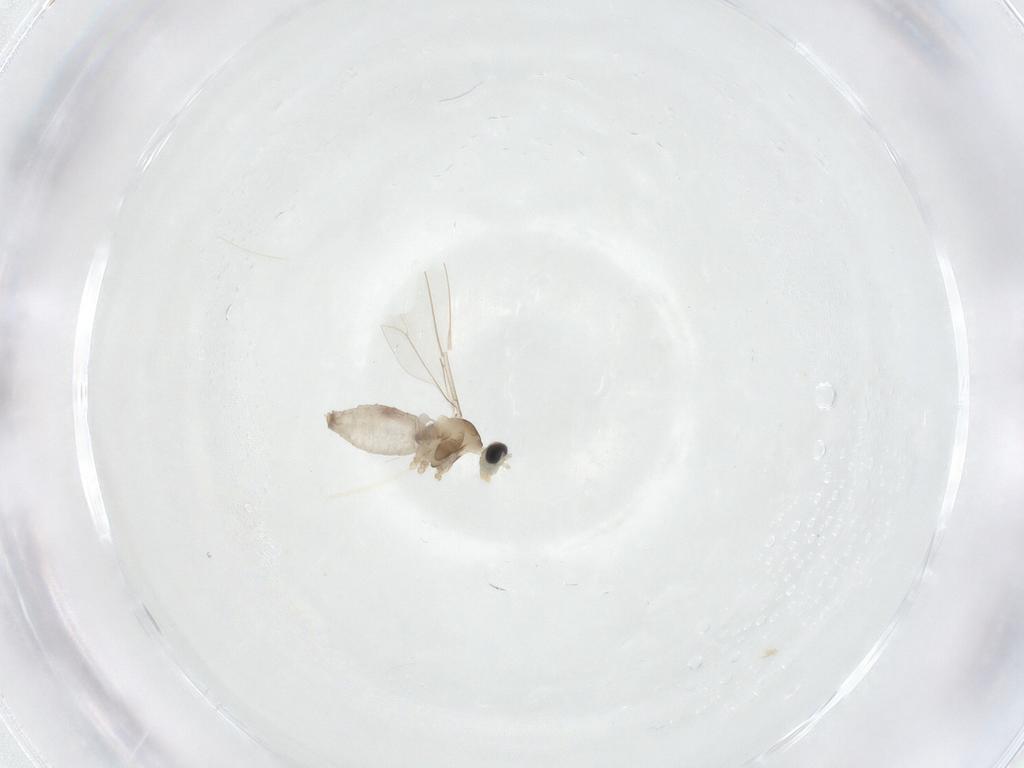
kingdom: Animalia
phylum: Arthropoda
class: Insecta
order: Diptera
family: Cecidomyiidae
